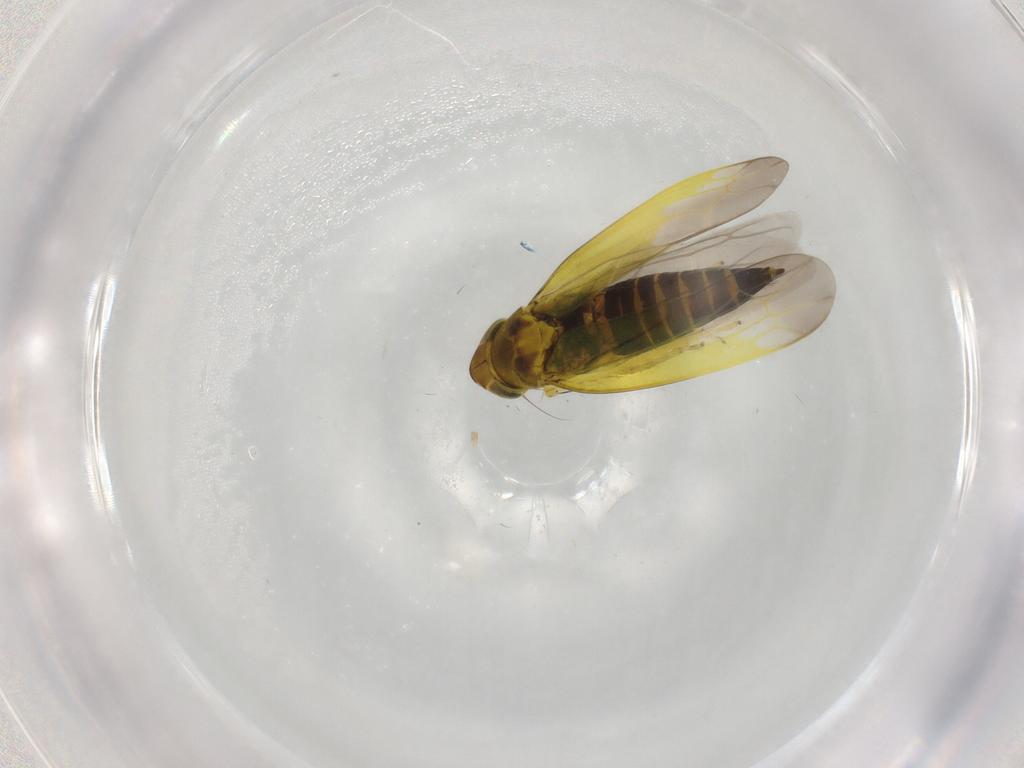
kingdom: Animalia
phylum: Arthropoda
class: Insecta
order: Hemiptera
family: Cicadellidae
